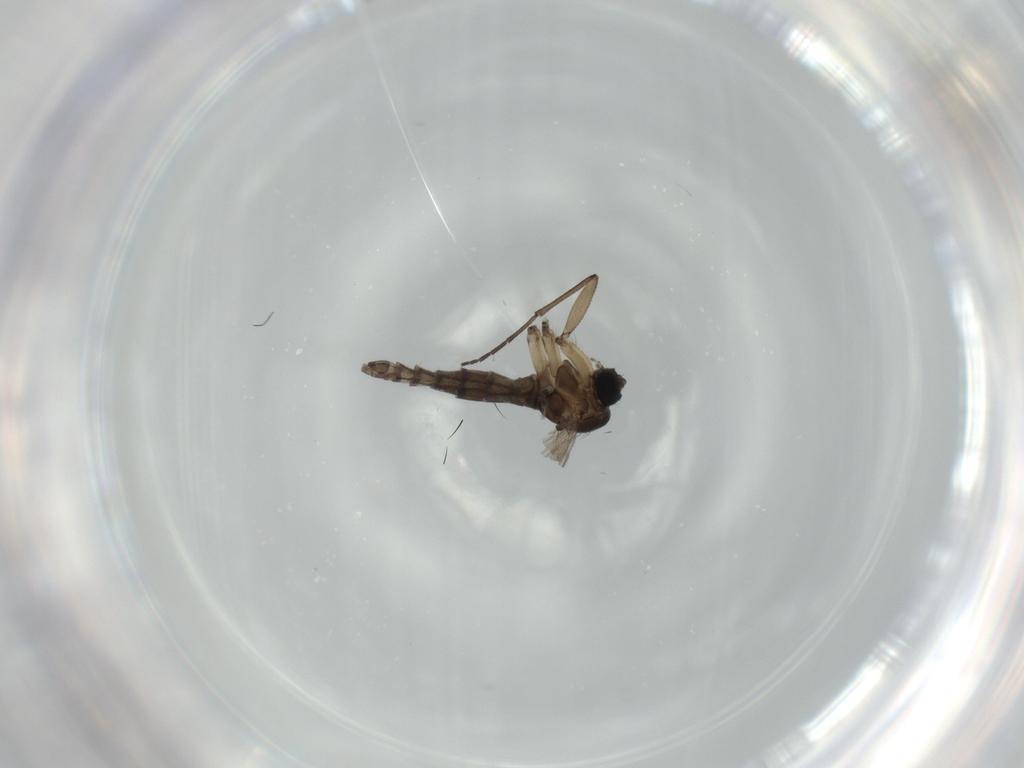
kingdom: Animalia
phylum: Arthropoda
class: Insecta
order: Diptera
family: Sciaridae
